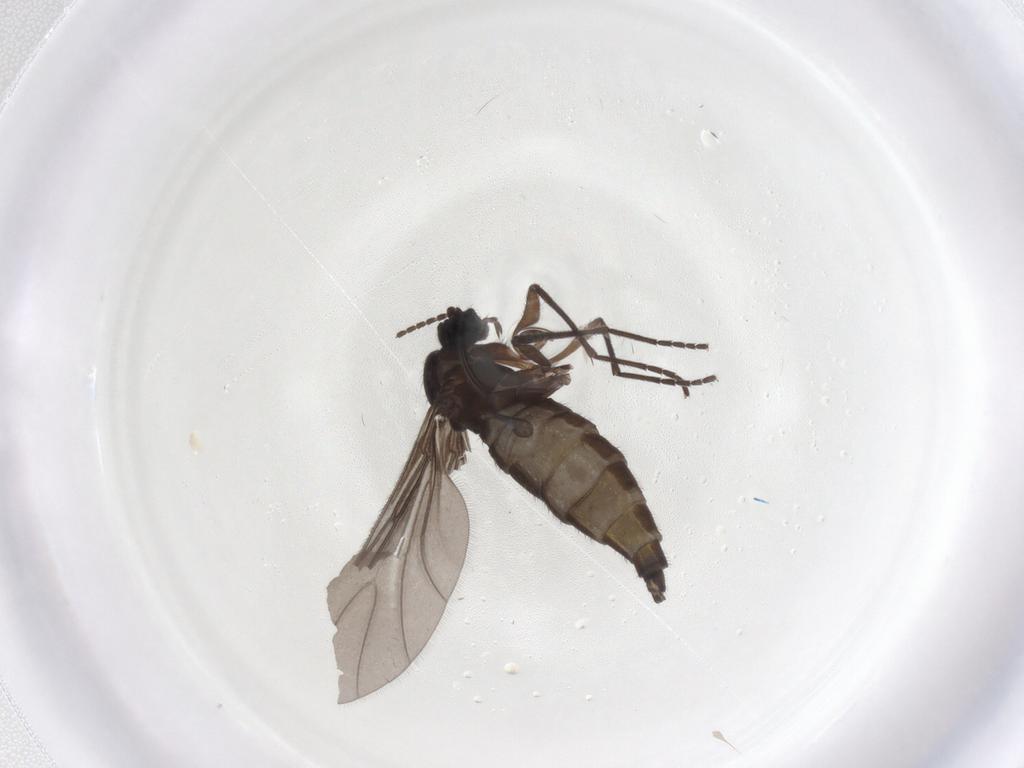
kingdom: Animalia
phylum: Arthropoda
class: Insecta
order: Diptera
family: Sciaridae
